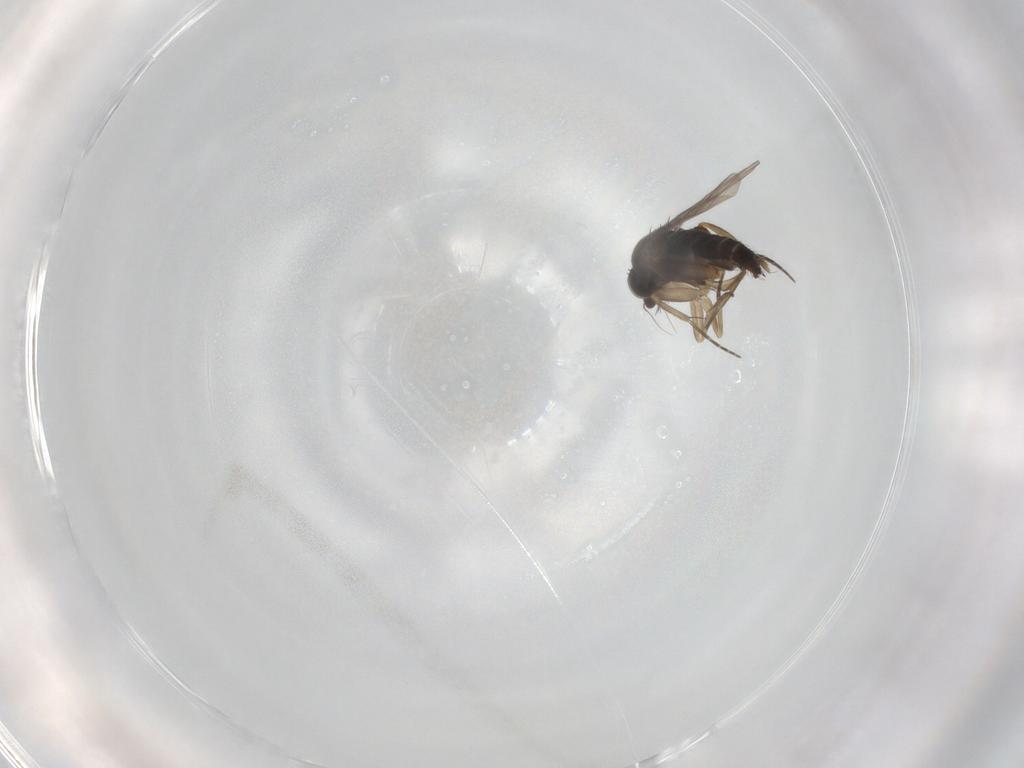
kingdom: Animalia
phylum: Arthropoda
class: Insecta
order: Diptera
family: Phoridae
